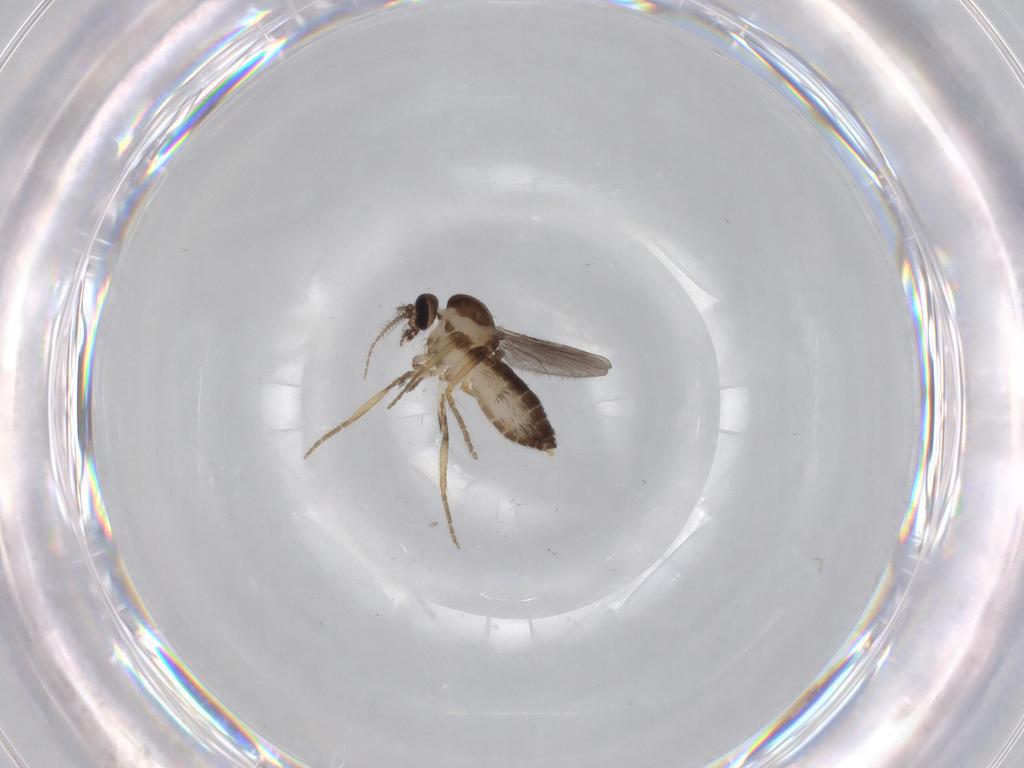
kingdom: Animalia
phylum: Arthropoda
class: Insecta
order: Diptera
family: Ceratopogonidae
